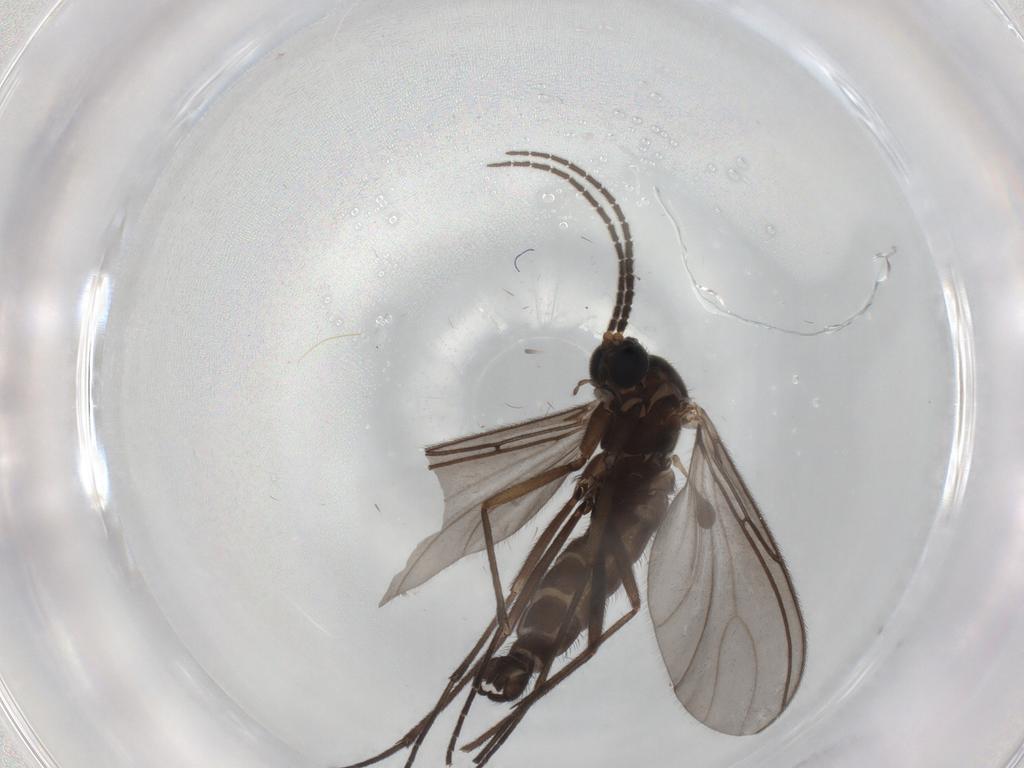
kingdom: Animalia
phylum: Arthropoda
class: Insecta
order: Diptera
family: Sciaridae
